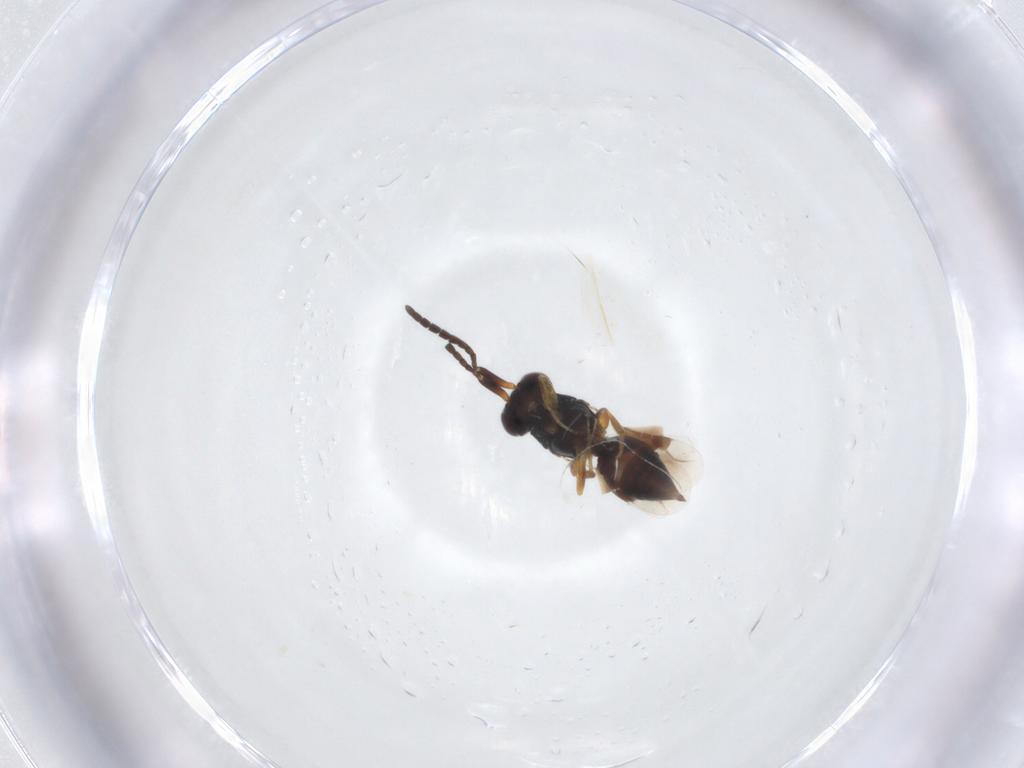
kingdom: Animalia
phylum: Arthropoda
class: Insecta
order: Hymenoptera
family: Megaspilidae
